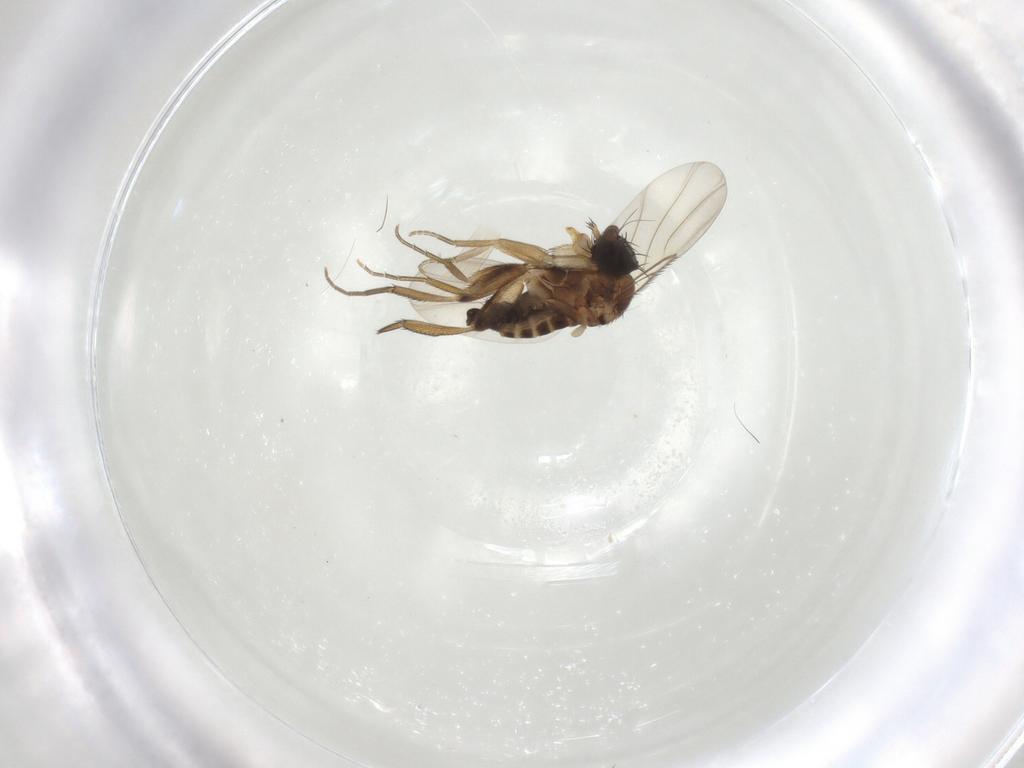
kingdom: Animalia
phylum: Arthropoda
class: Insecta
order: Diptera
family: Phoridae
